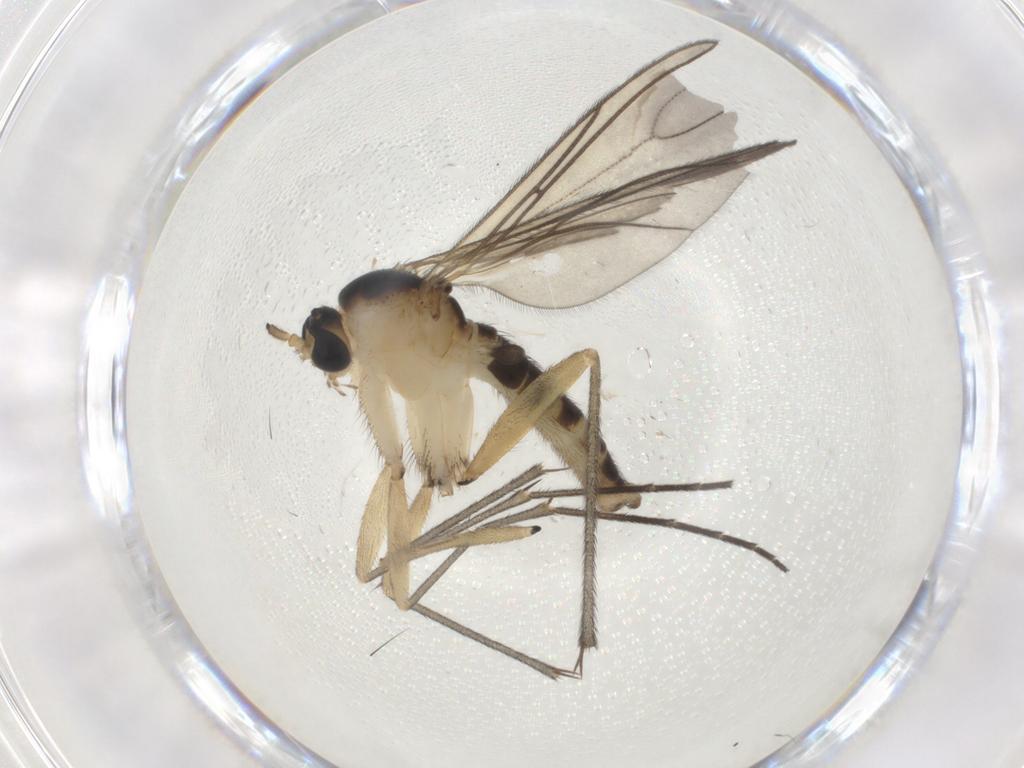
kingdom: Animalia
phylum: Arthropoda
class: Insecta
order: Diptera
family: Sciaridae
